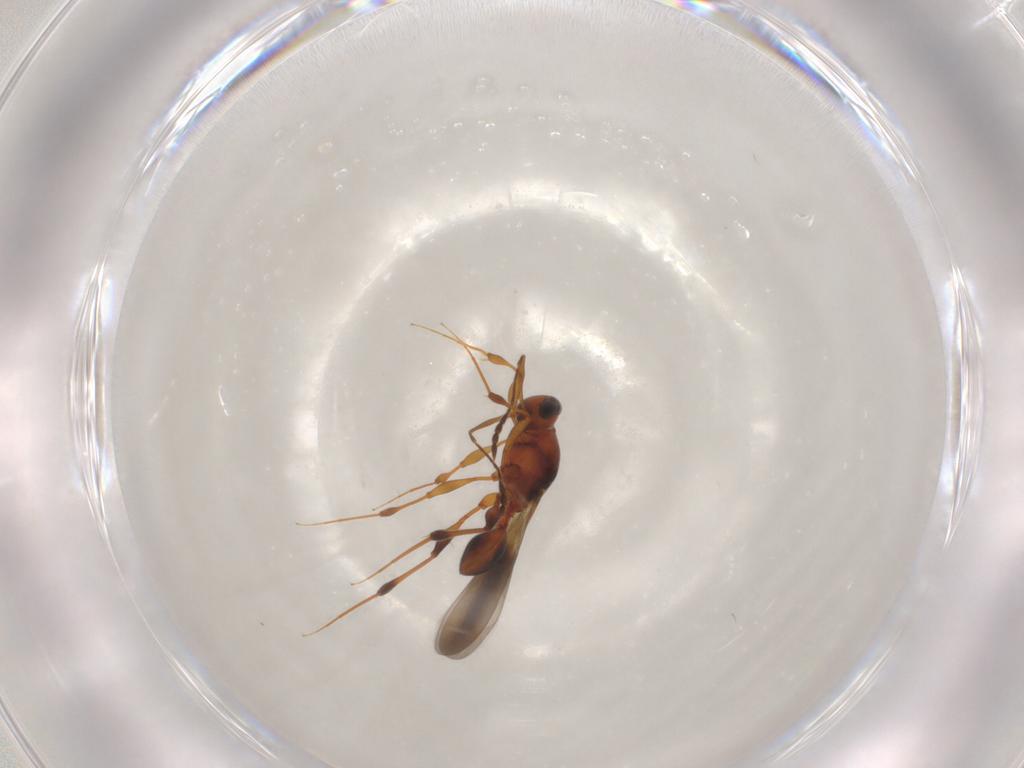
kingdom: Animalia
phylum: Arthropoda
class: Insecta
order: Hymenoptera
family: Platygastridae
